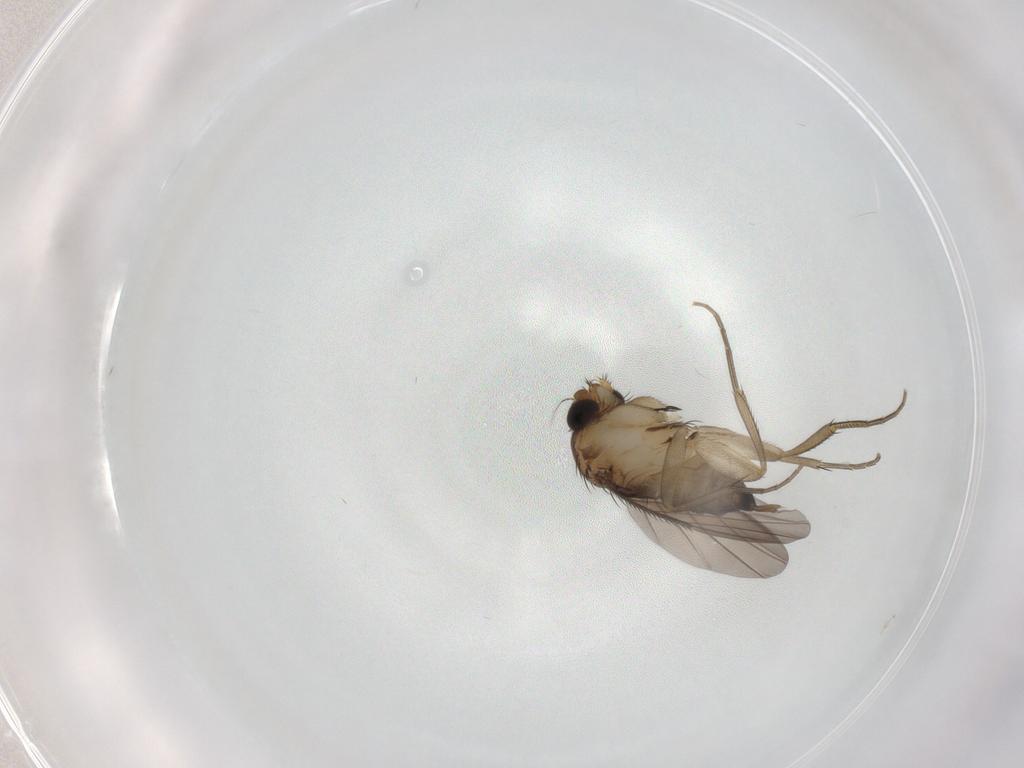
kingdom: Animalia
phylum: Arthropoda
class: Insecta
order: Diptera
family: Phoridae
